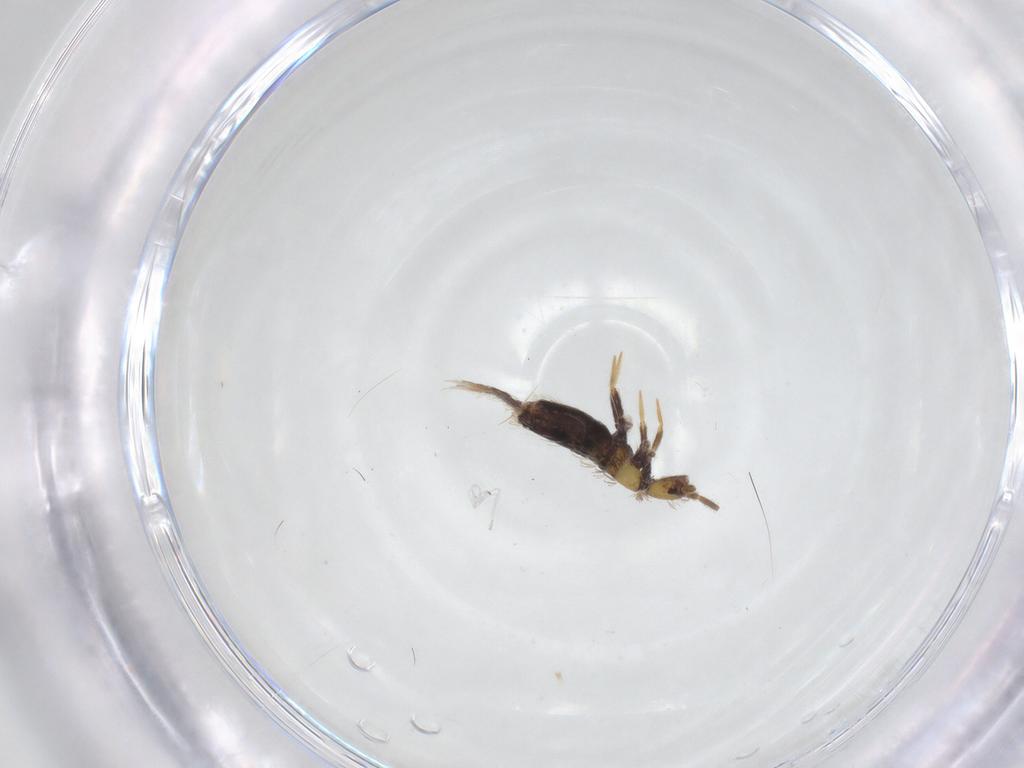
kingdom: Animalia
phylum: Arthropoda
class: Collembola
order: Entomobryomorpha
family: Entomobryidae
